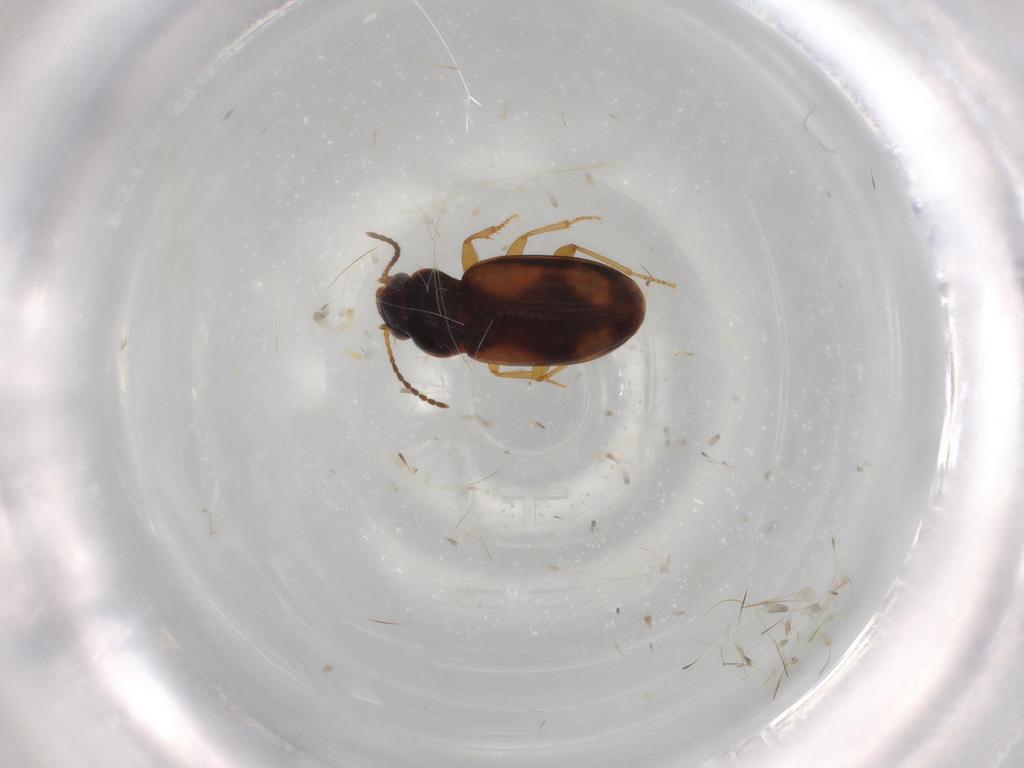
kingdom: Animalia
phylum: Arthropoda
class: Insecta
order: Coleoptera
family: Carabidae
